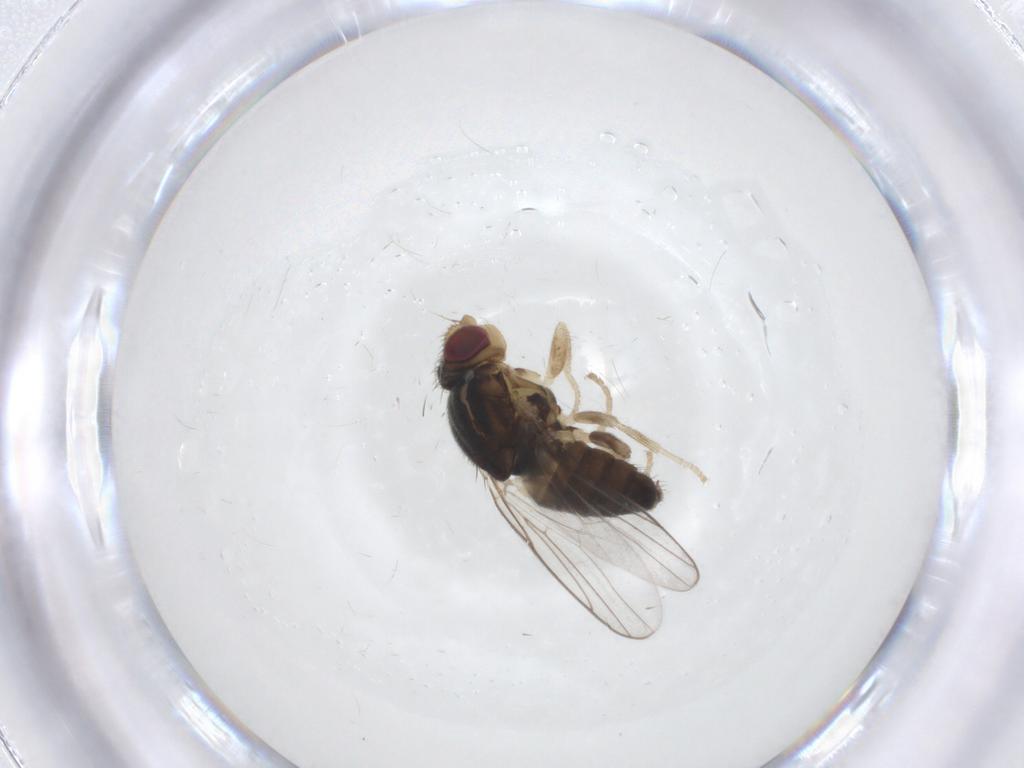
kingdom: Animalia
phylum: Arthropoda
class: Insecta
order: Diptera
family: Chloropidae
